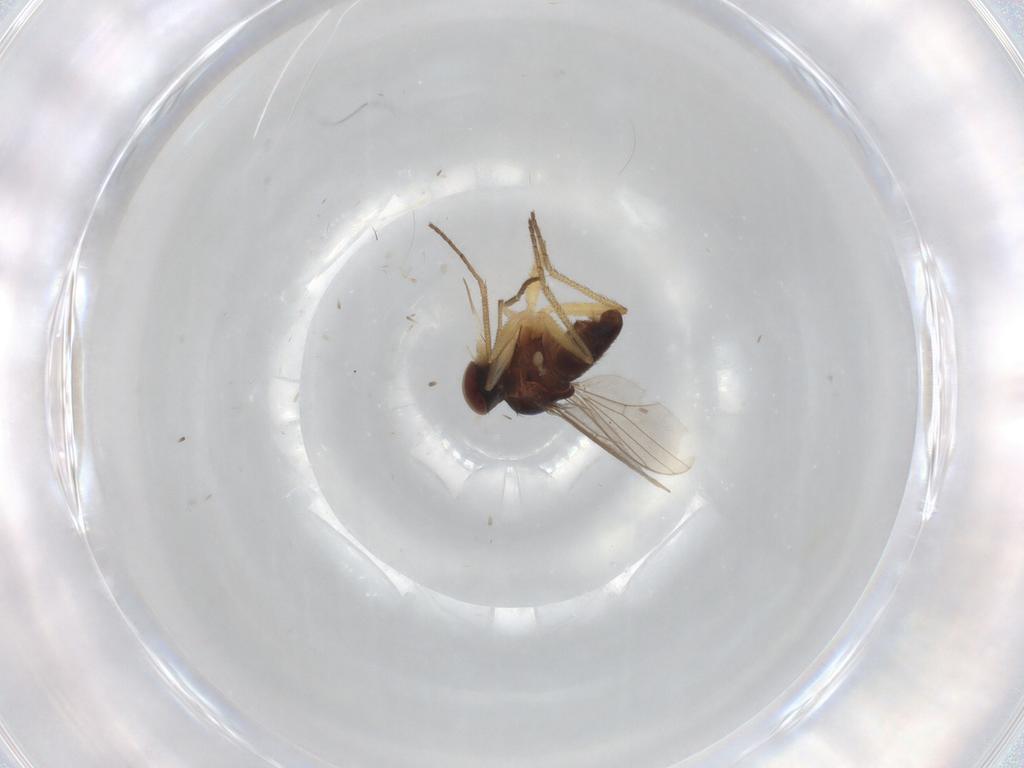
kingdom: Animalia
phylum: Arthropoda
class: Insecta
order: Diptera
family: Dolichopodidae
